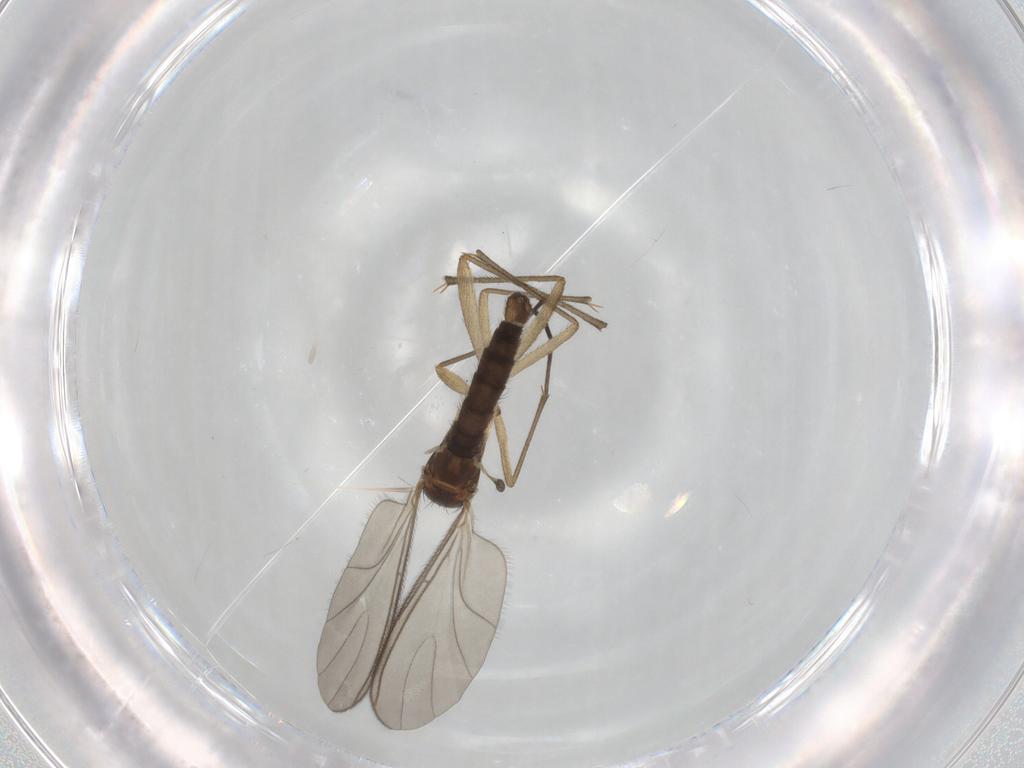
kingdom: Animalia
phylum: Arthropoda
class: Insecta
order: Diptera
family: Sciaridae
